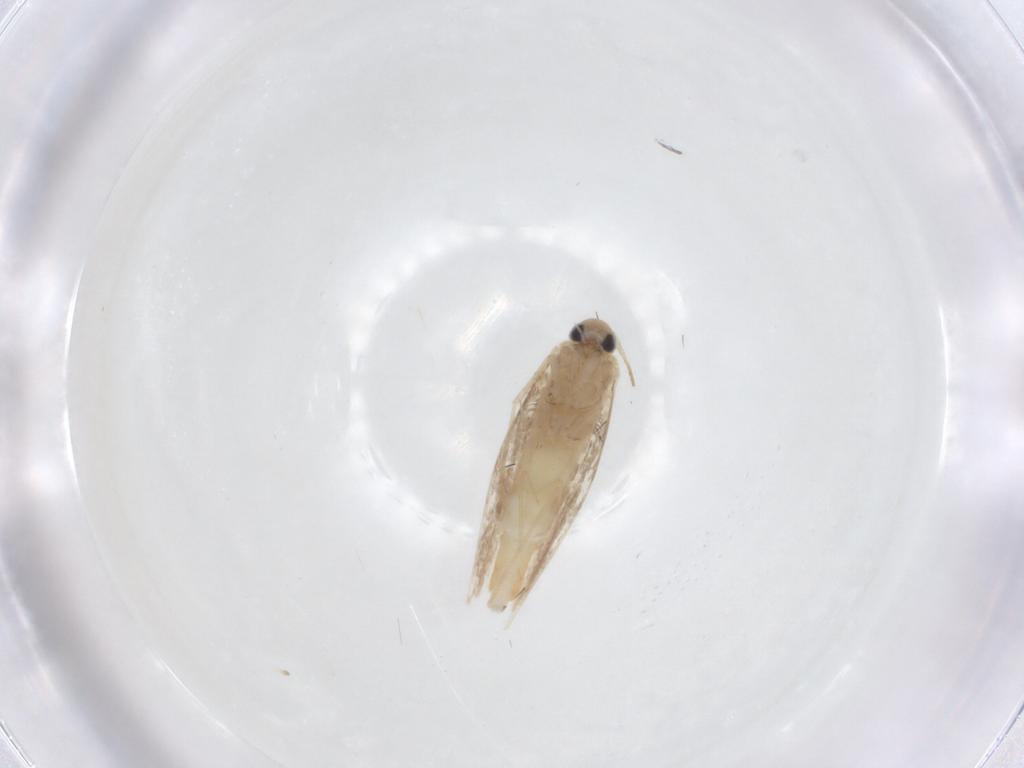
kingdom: Animalia
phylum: Arthropoda
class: Insecta
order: Lepidoptera
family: Gracillariidae
